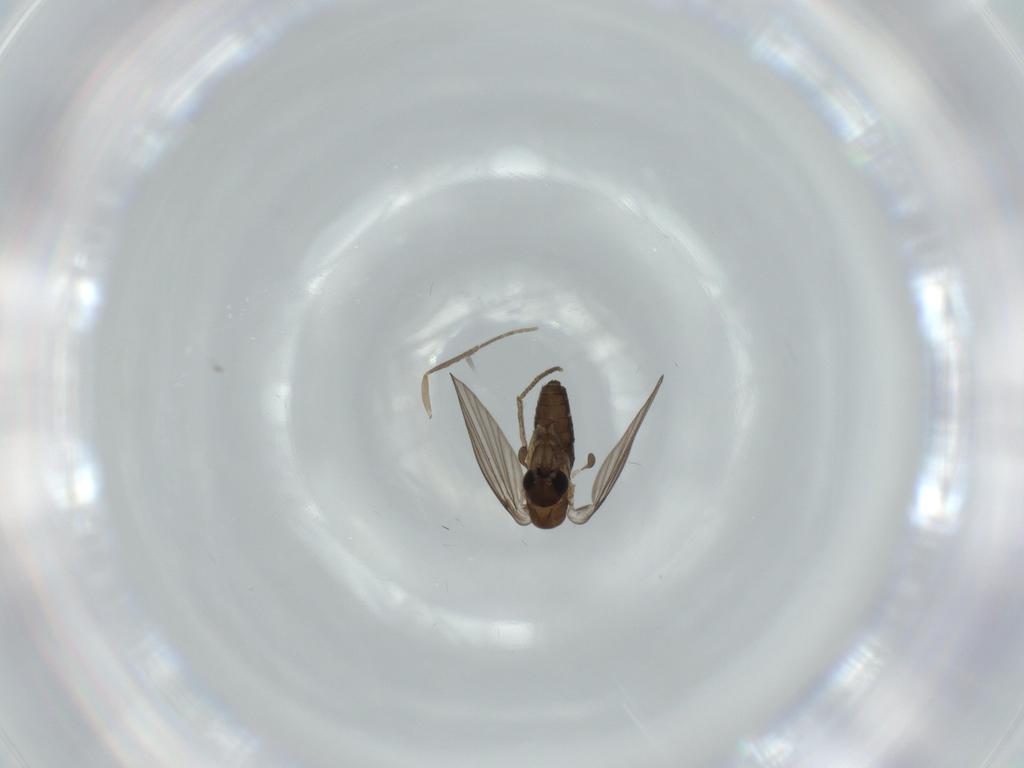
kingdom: Animalia
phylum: Arthropoda
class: Insecta
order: Diptera
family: Psychodidae
